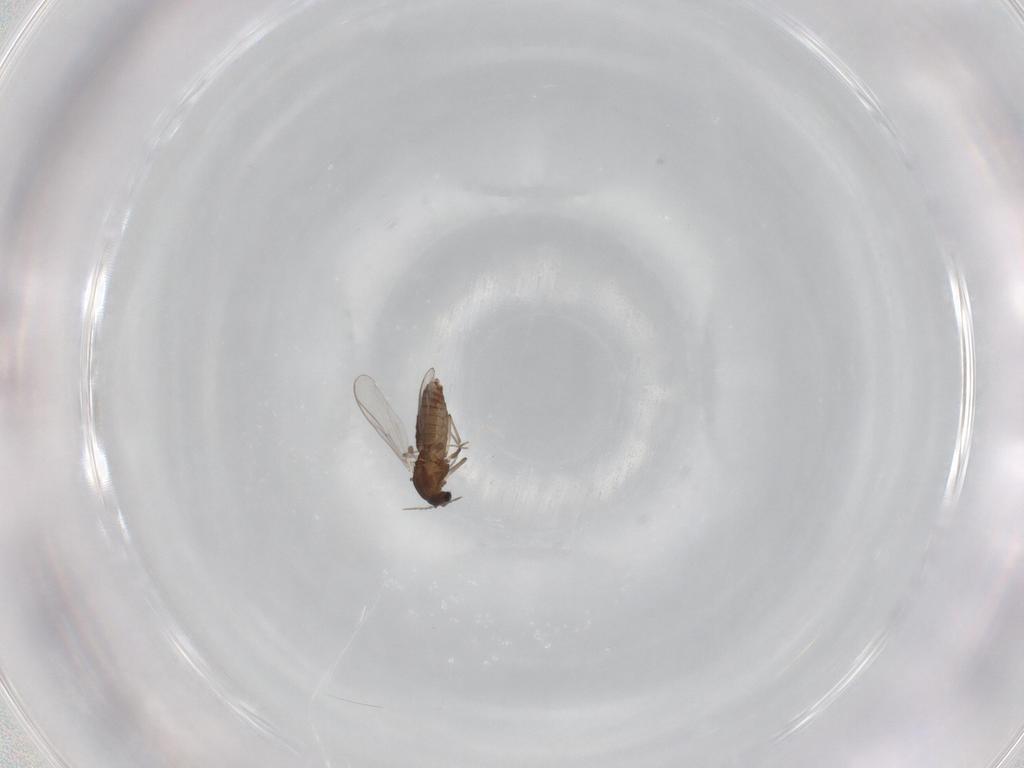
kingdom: Animalia
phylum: Arthropoda
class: Insecta
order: Diptera
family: Chironomidae
